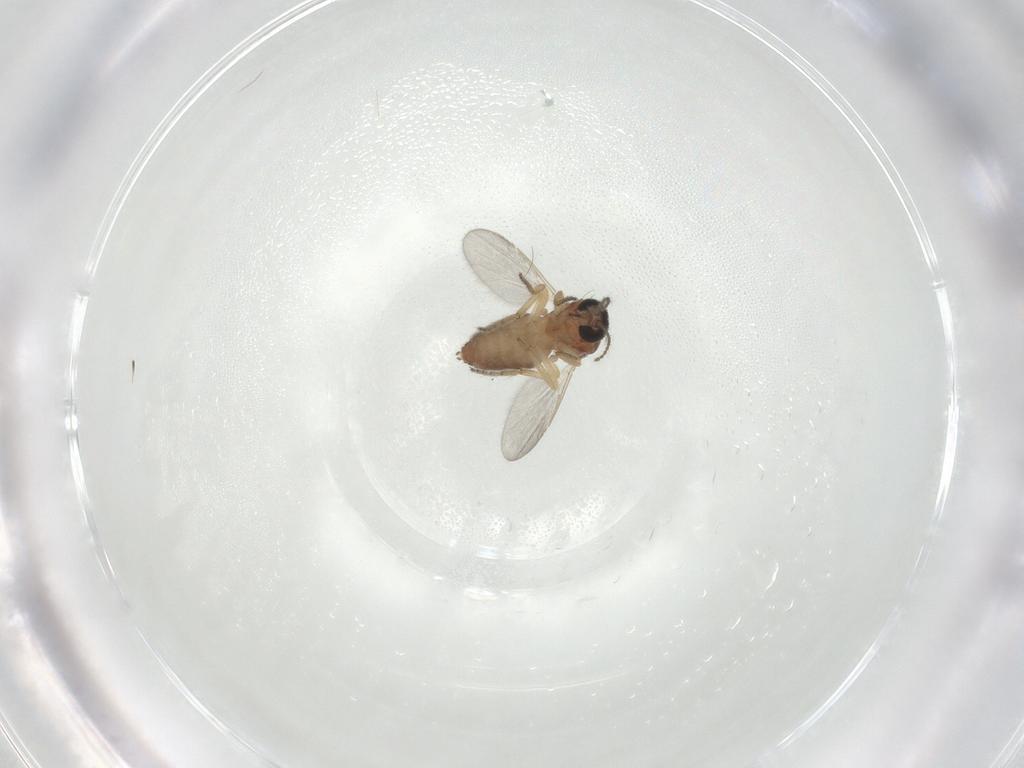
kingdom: Animalia
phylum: Arthropoda
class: Insecta
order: Diptera
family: Ceratopogonidae
